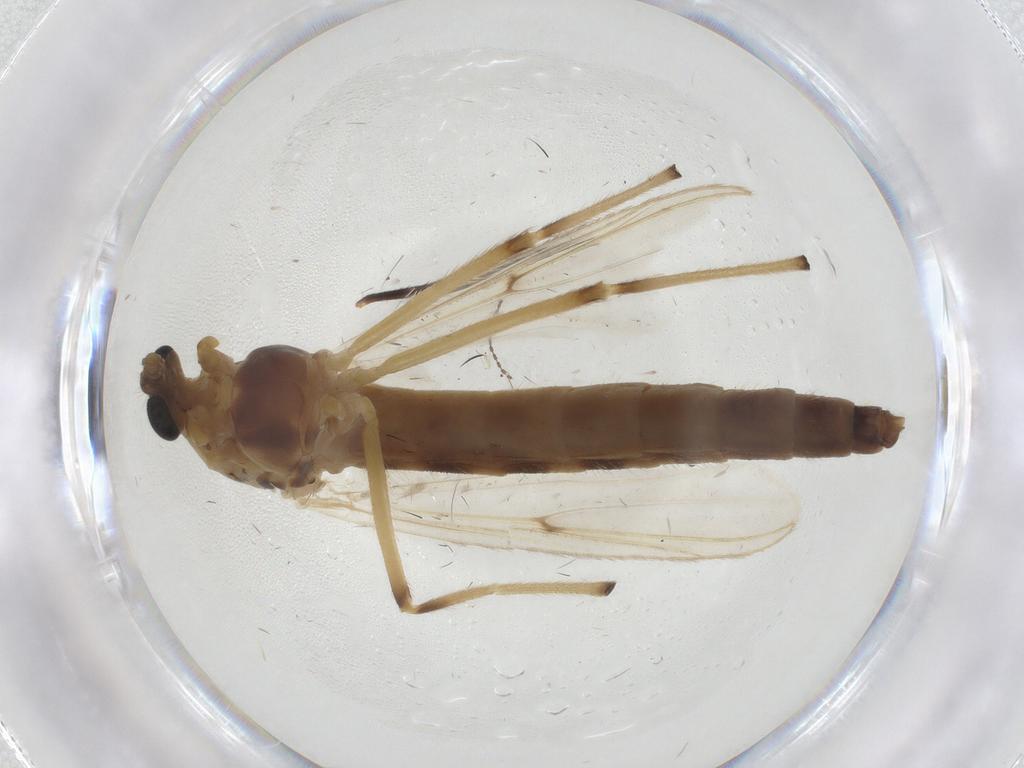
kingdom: Animalia
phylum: Arthropoda
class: Insecta
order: Diptera
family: Chironomidae
